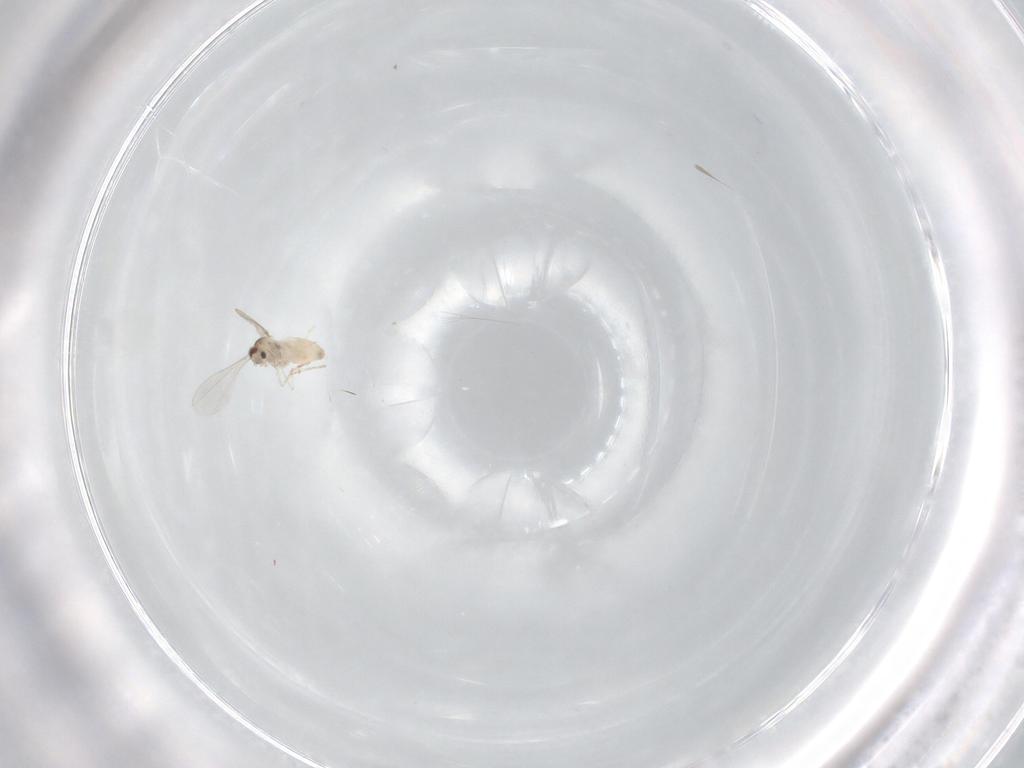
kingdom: Animalia
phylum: Arthropoda
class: Insecta
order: Diptera
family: Cecidomyiidae
